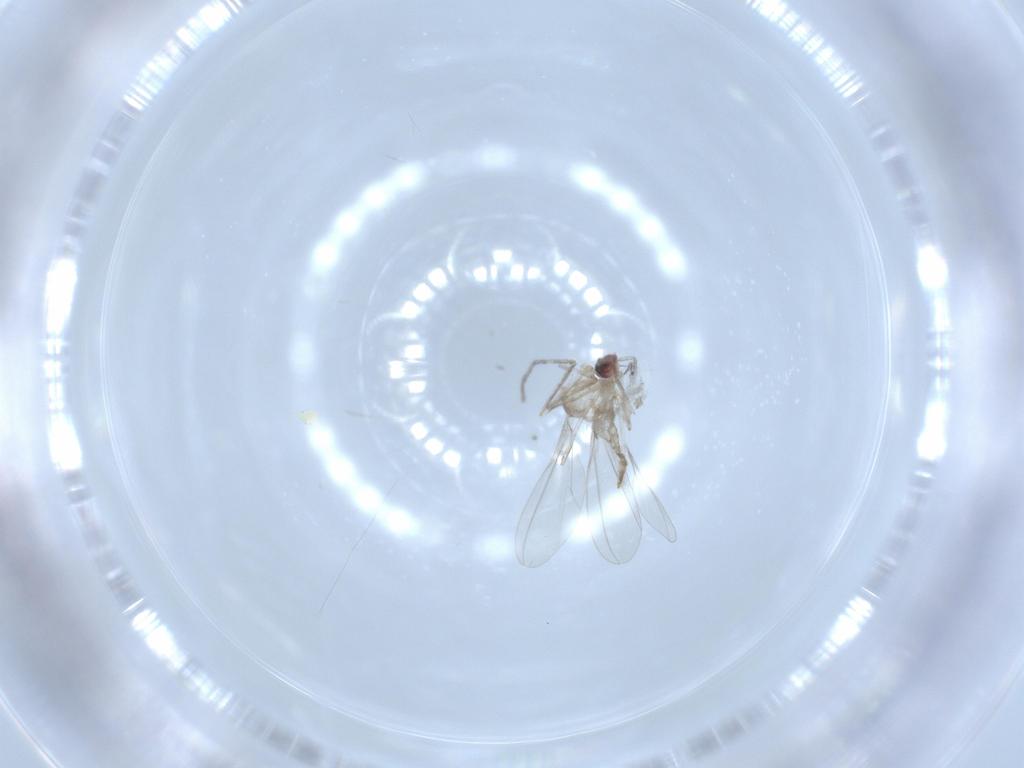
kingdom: Animalia
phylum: Arthropoda
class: Insecta
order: Diptera
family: Cecidomyiidae
